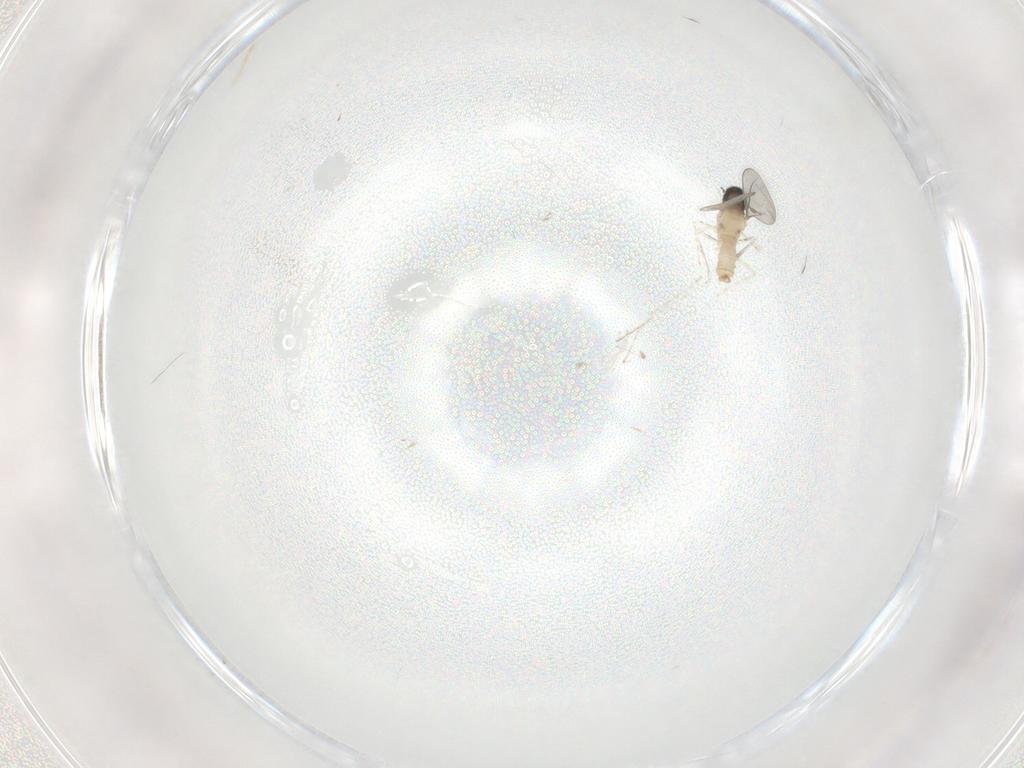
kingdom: Animalia
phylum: Arthropoda
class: Insecta
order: Diptera
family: Cecidomyiidae
